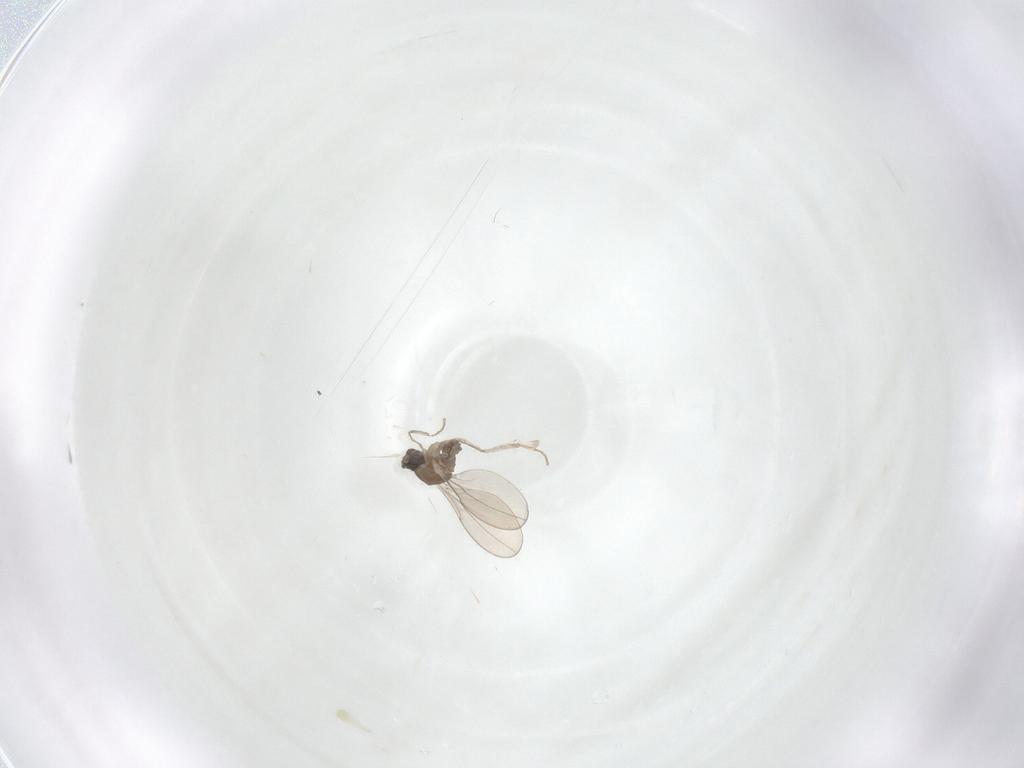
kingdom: Animalia
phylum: Arthropoda
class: Insecta
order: Diptera
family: Cecidomyiidae
